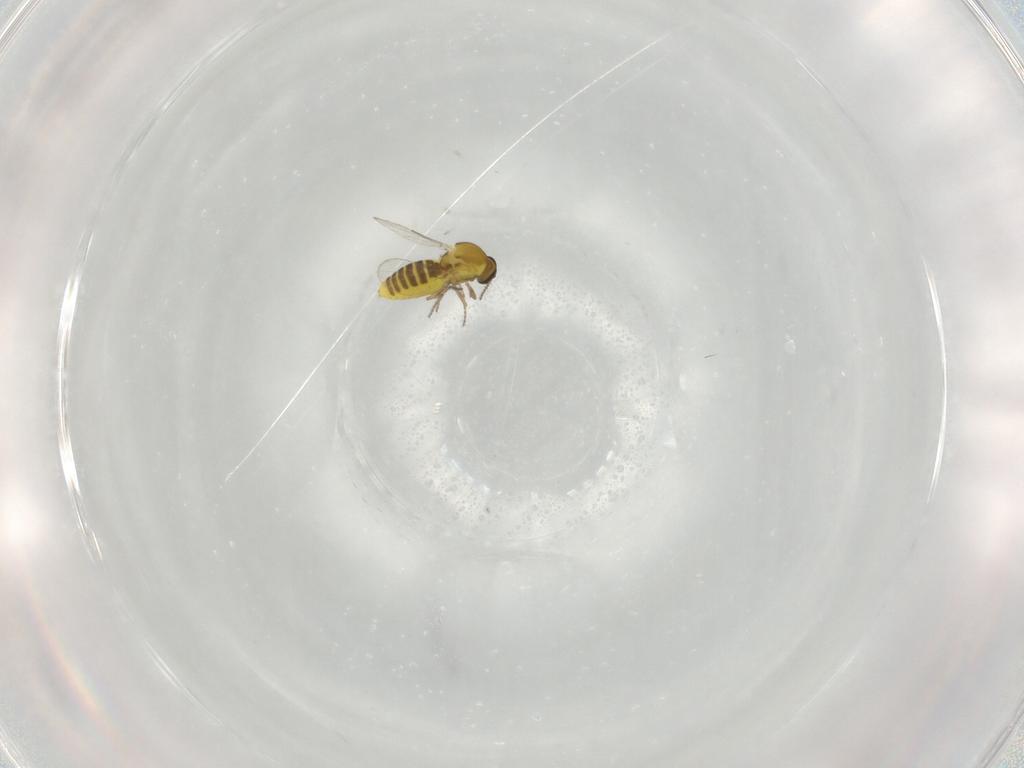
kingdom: Animalia
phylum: Arthropoda
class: Insecta
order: Diptera
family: Ceratopogonidae
